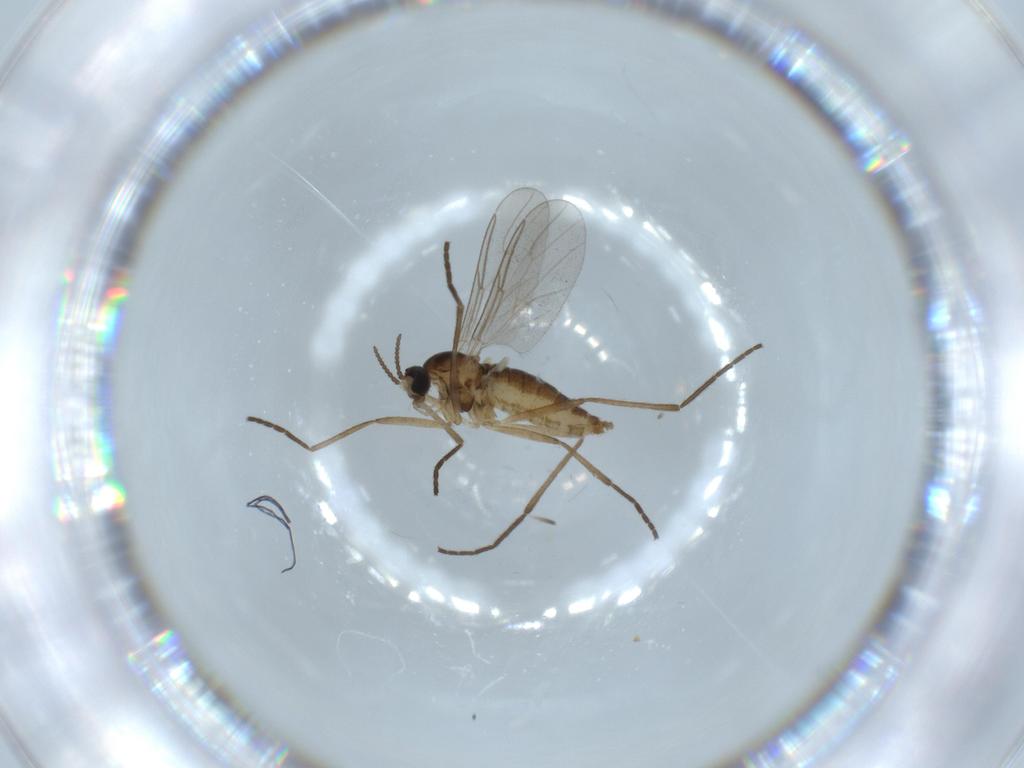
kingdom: Animalia
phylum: Arthropoda
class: Insecta
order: Diptera
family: Cecidomyiidae
